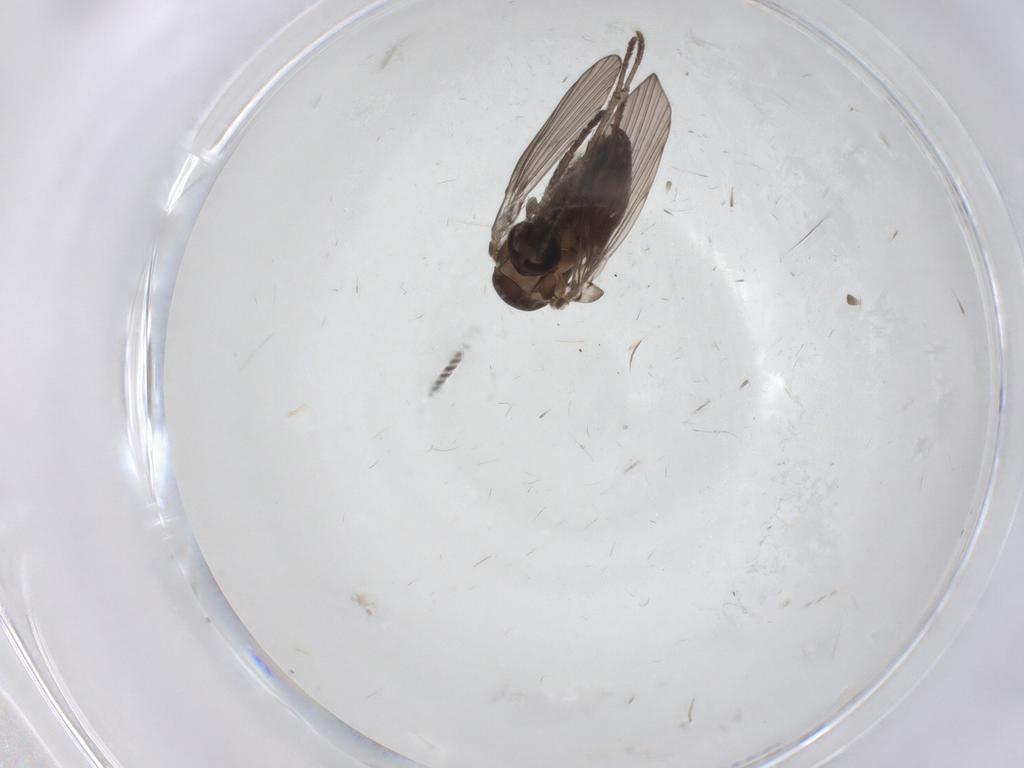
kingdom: Animalia
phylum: Arthropoda
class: Insecta
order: Diptera
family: Psychodidae
